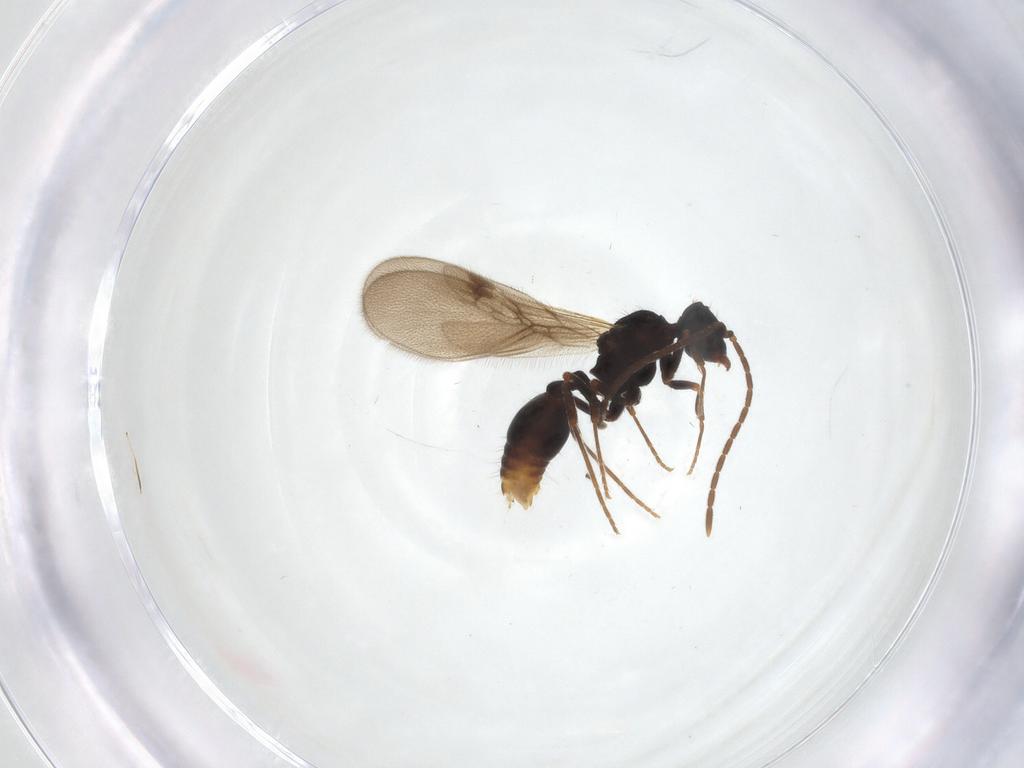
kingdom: Animalia
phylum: Arthropoda
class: Insecta
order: Hymenoptera
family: Formicidae
